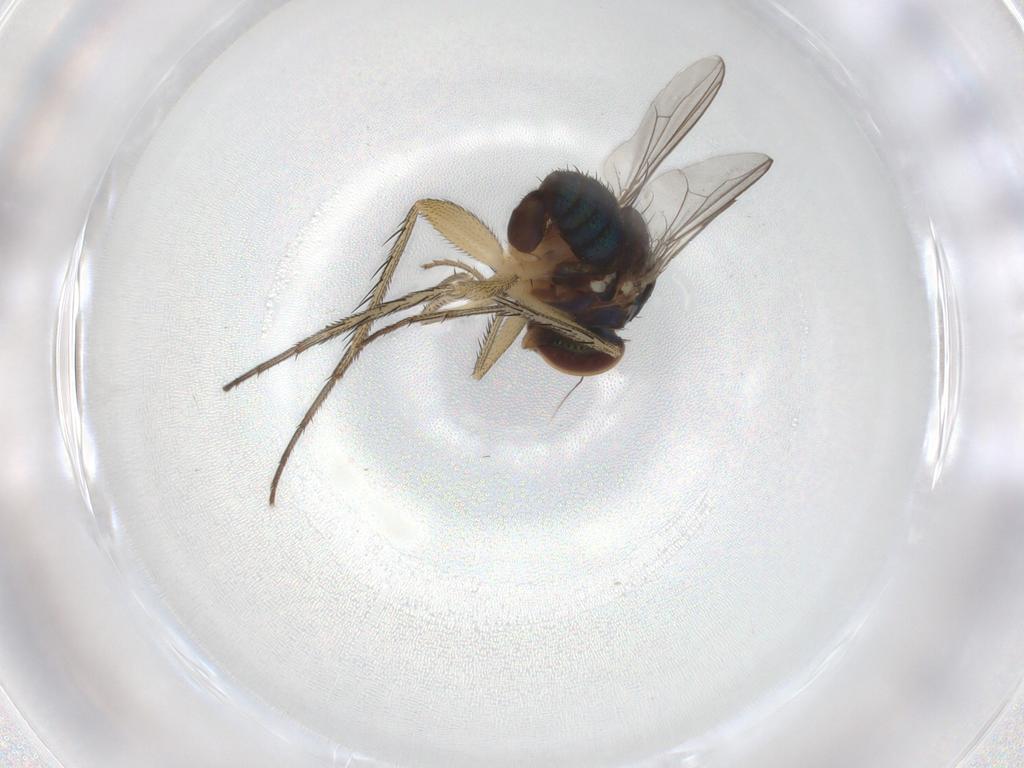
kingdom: Animalia
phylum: Arthropoda
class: Insecta
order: Diptera
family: Dolichopodidae
